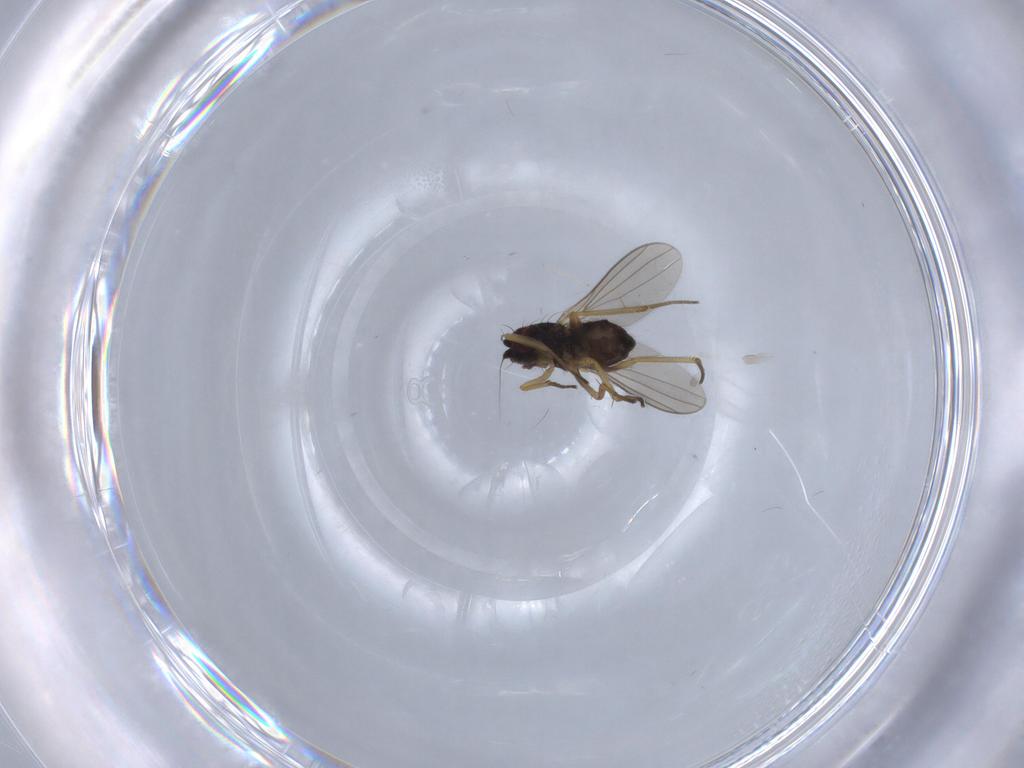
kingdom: Animalia
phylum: Arthropoda
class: Insecta
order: Diptera
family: Dolichopodidae
